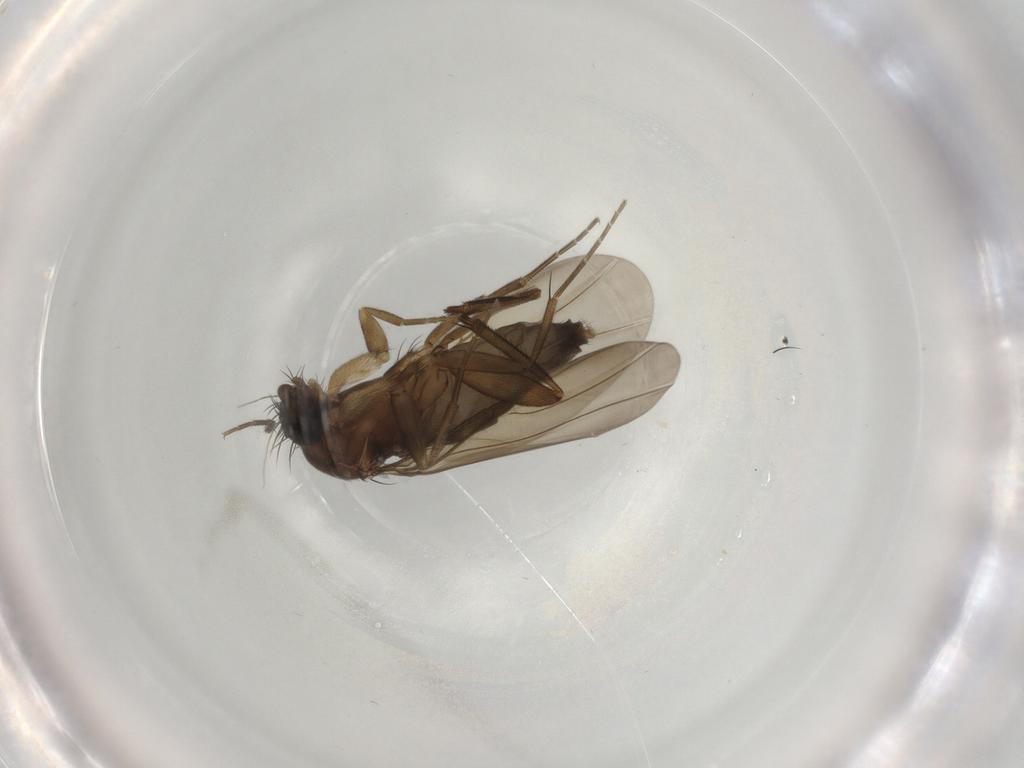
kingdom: Animalia
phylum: Arthropoda
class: Insecta
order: Diptera
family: Phoridae
